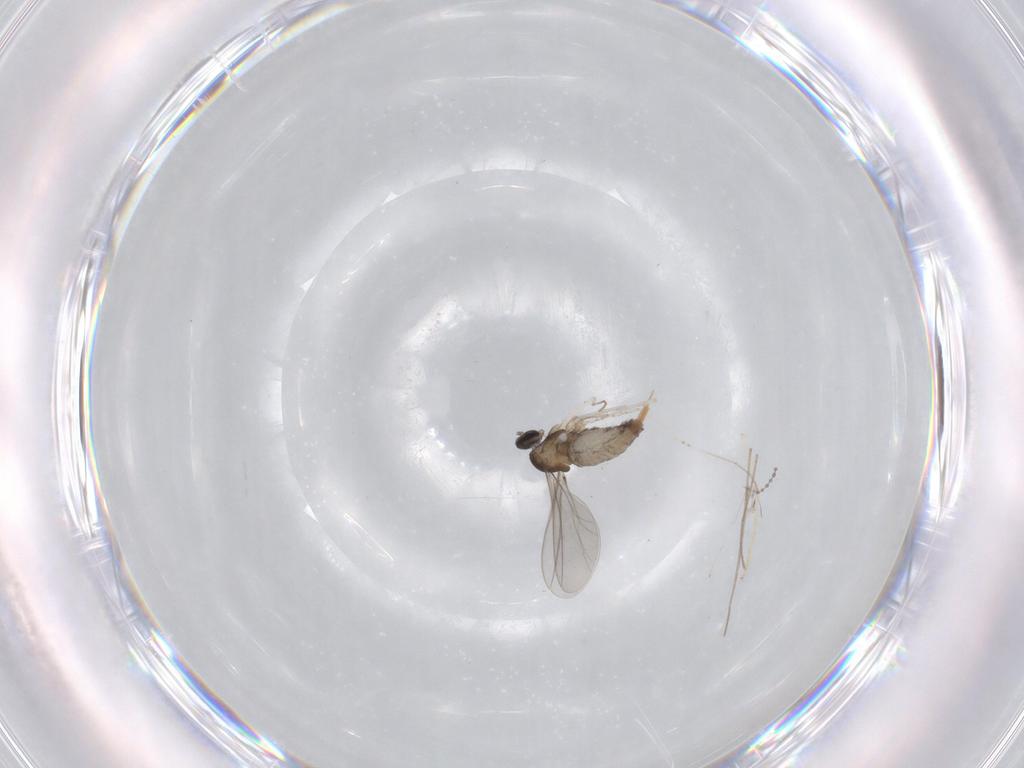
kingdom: Animalia
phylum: Arthropoda
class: Insecta
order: Diptera
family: Cecidomyiidae
